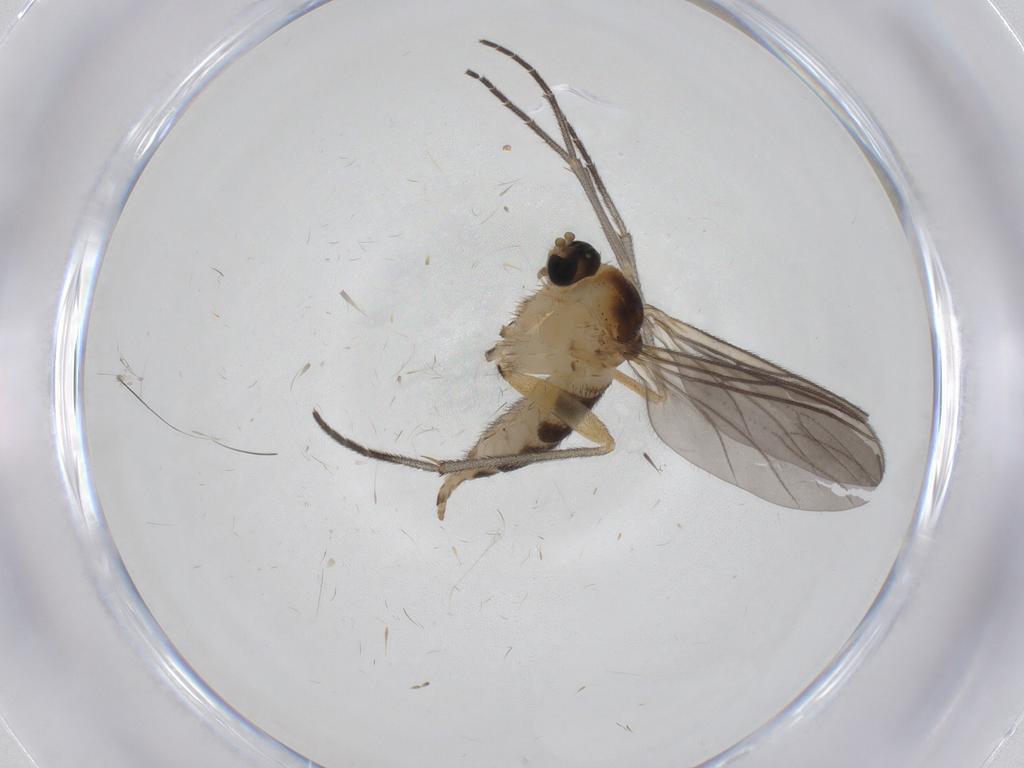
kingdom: Animalia
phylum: Arthropoda
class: Insecta
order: Diptera
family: Sciaridae
